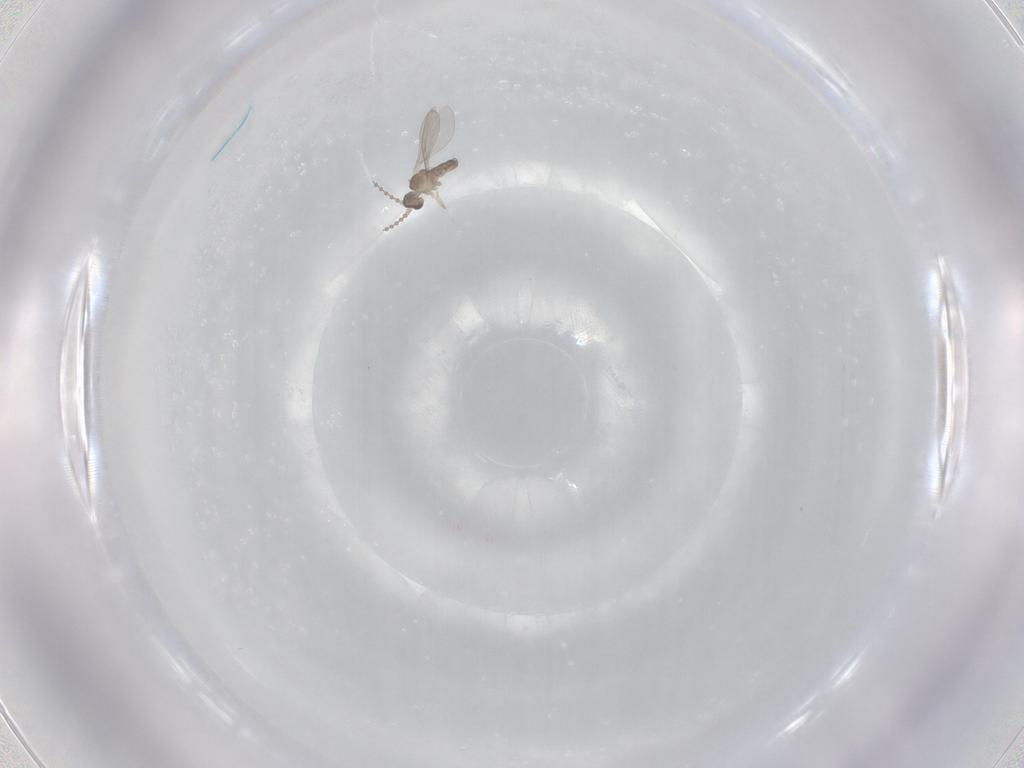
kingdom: Animalia
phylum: Arthropoda
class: Insecta
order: Diptera
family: Cecidomyiidae
